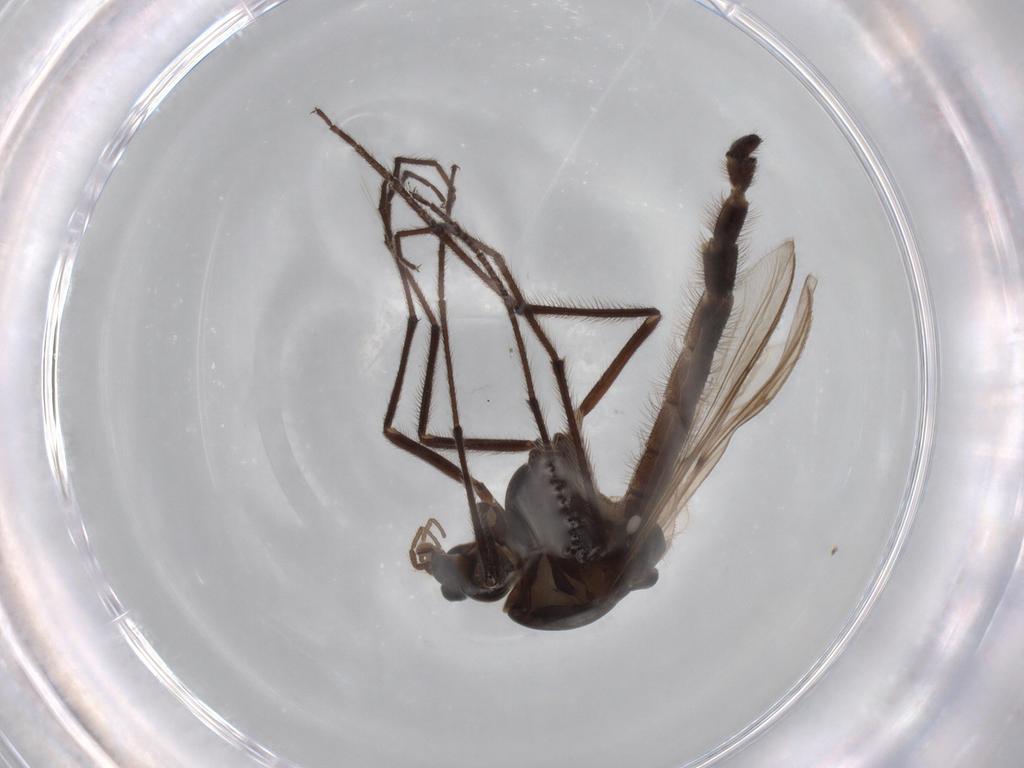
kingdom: Animalia
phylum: Arthropoda
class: Insecta
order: Diptera
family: Chironomidae
